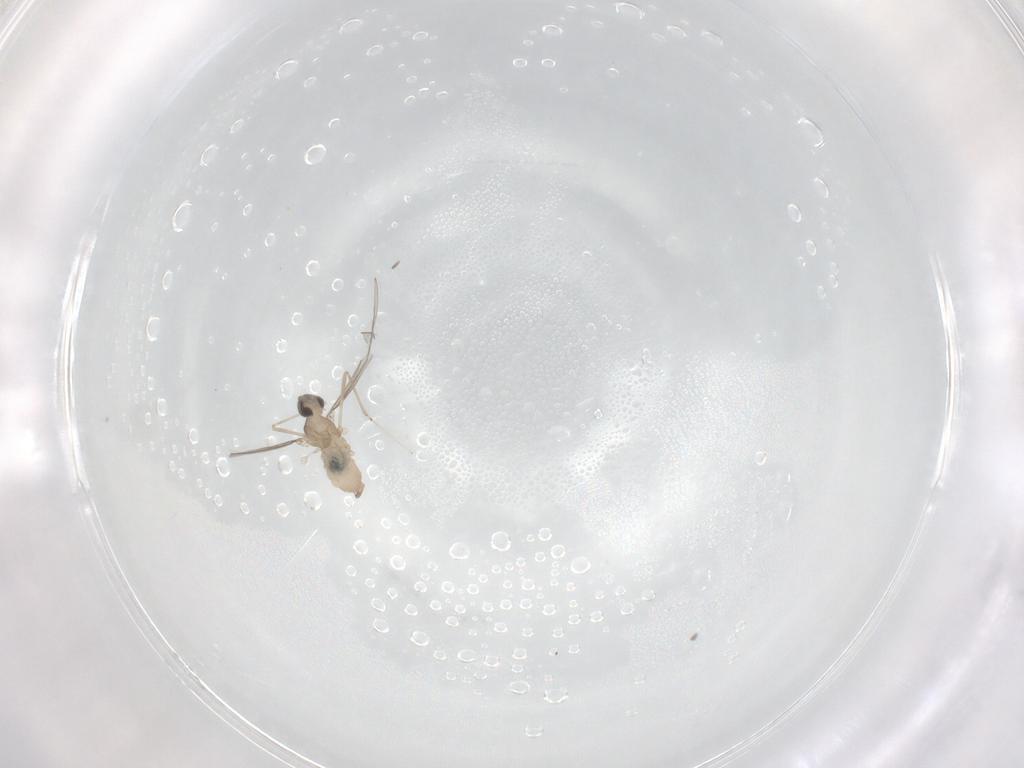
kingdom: Animalia
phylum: Arthropoda
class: Insecta
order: Diptera
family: Cecidomyiidae
